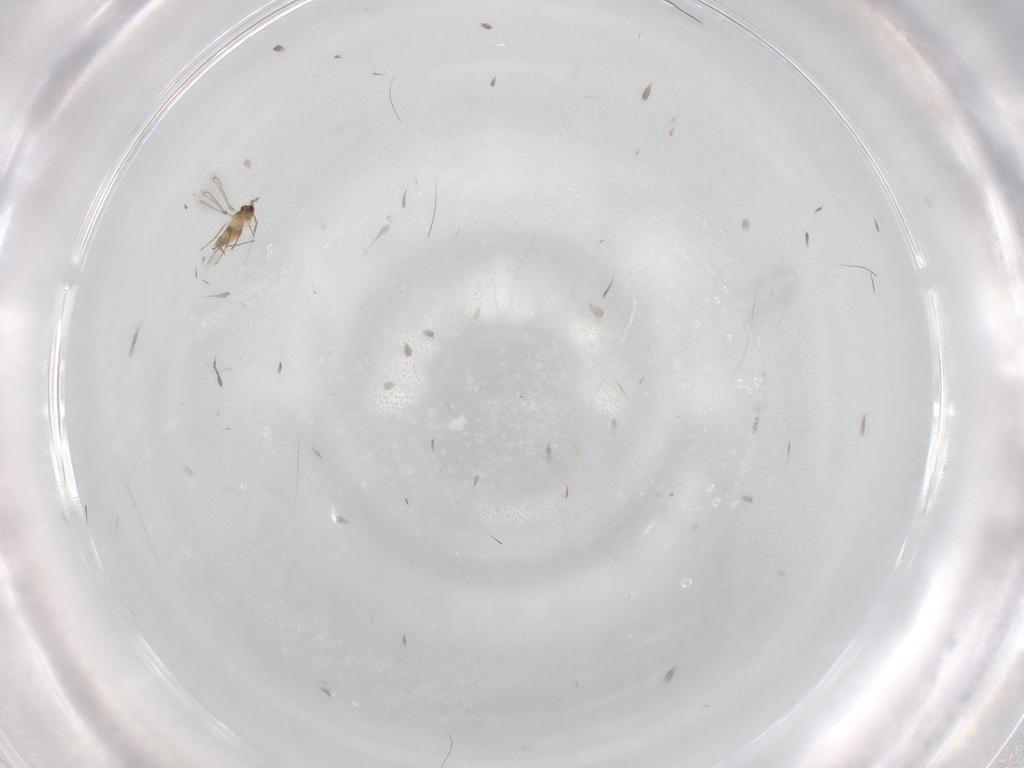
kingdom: Animalia
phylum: Arthropoda
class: Insecta
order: Hymenoptera
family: Mymaridae
